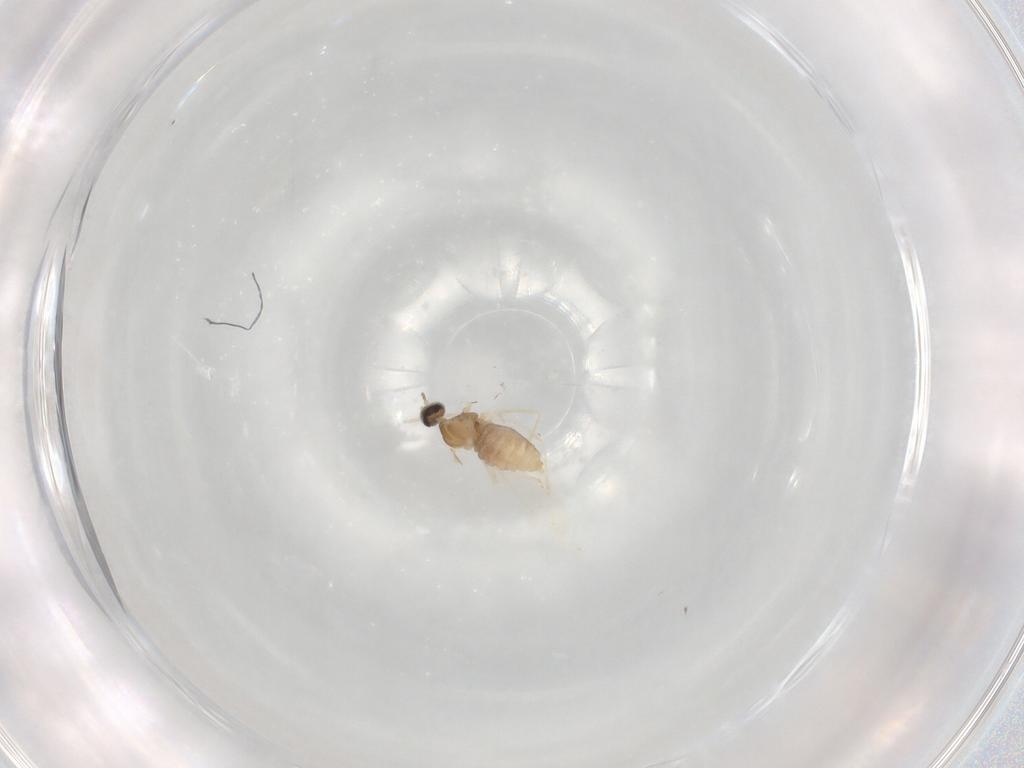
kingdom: Animalia
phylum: Arthropoda
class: Insecta
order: Diptera
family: Cecidomyiidae
